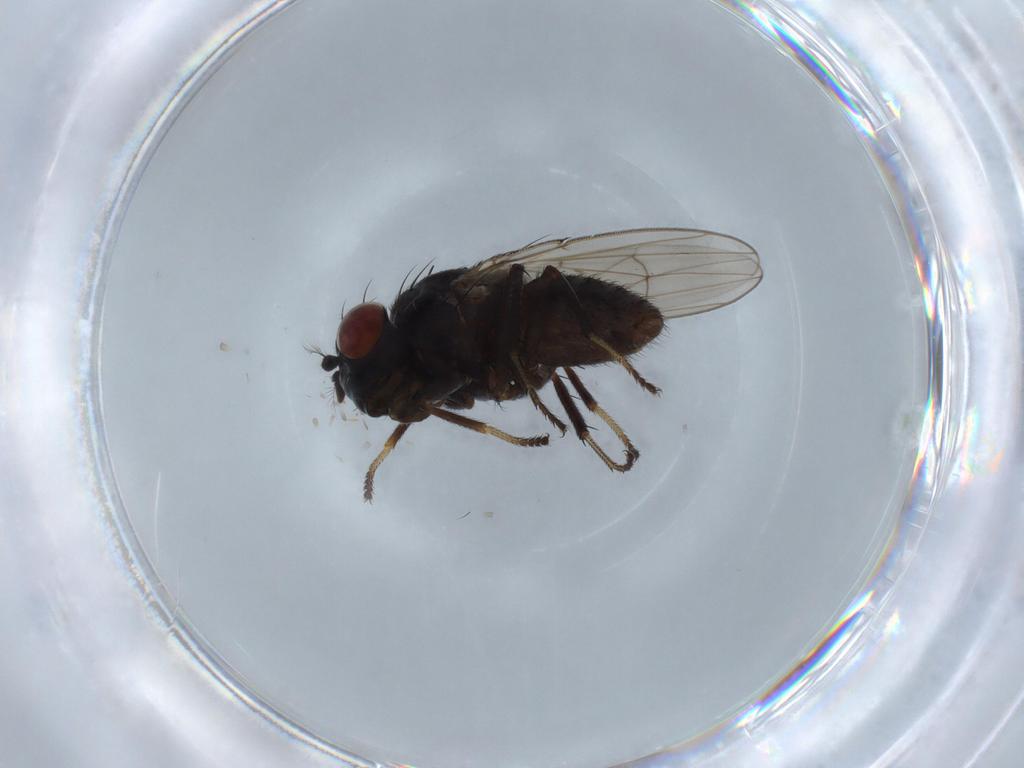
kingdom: Animalia
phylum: Arthropoda
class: Insecta
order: Diptera
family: Ephydridae
